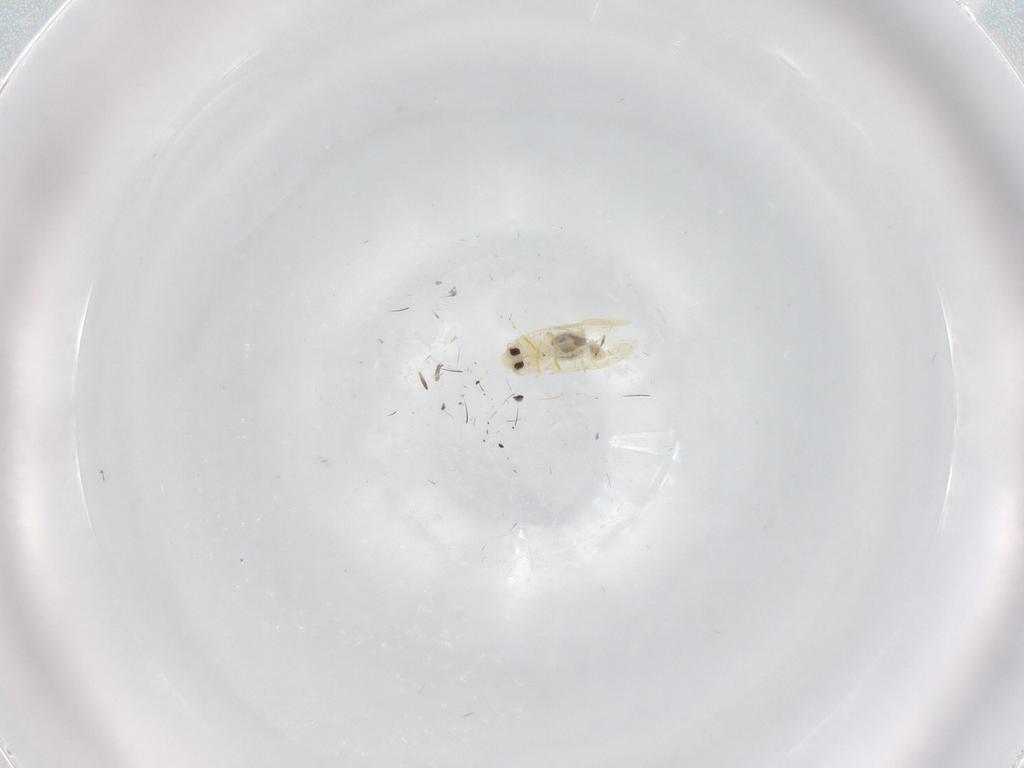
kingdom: Animalia
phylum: Arthropoda
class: Insecta
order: Hemiptera
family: Aleyrodidae
